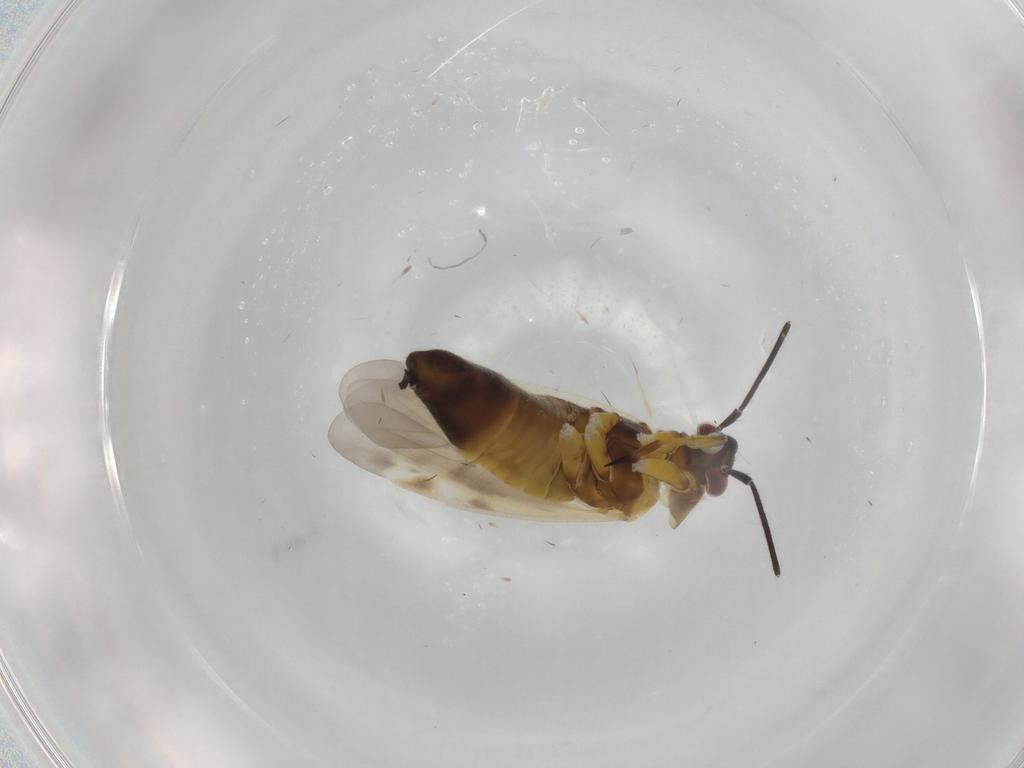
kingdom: Animalia
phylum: Arthropoda
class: Insecta
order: Hemiptera
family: Miridae
